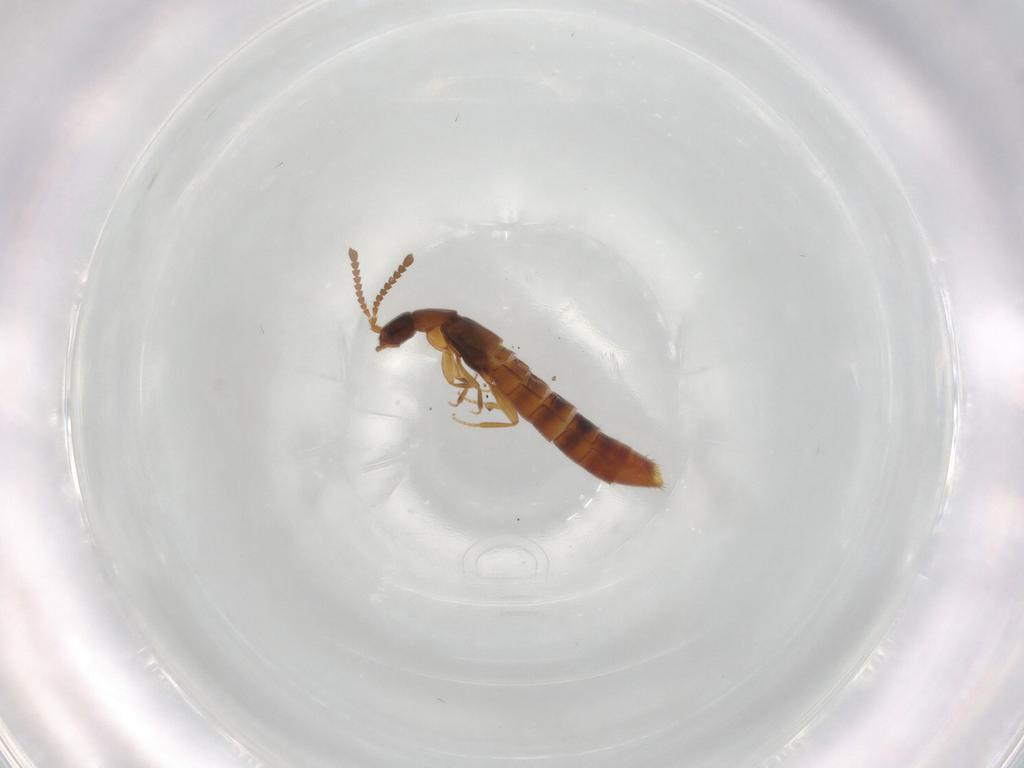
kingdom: Animalia
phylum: Arthropoda
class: Insecta
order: Coleoptera
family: Staphylinidae
